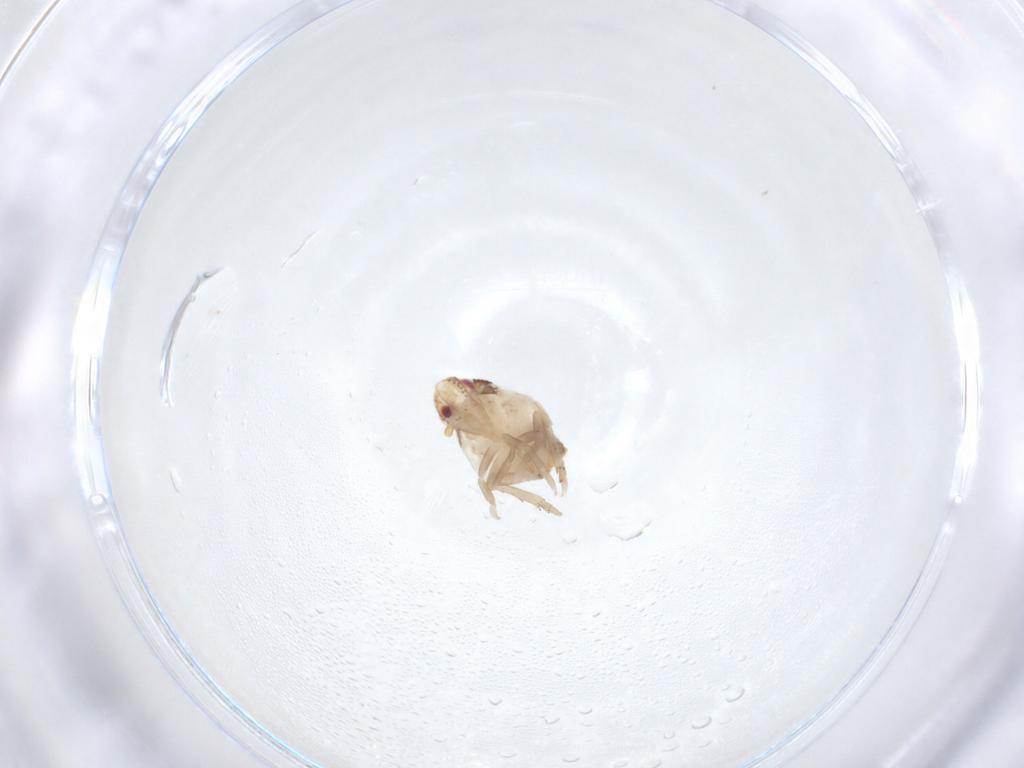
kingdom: Animalia
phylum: Arthropoda
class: Insecta
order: Hemiptera
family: Flatidae
